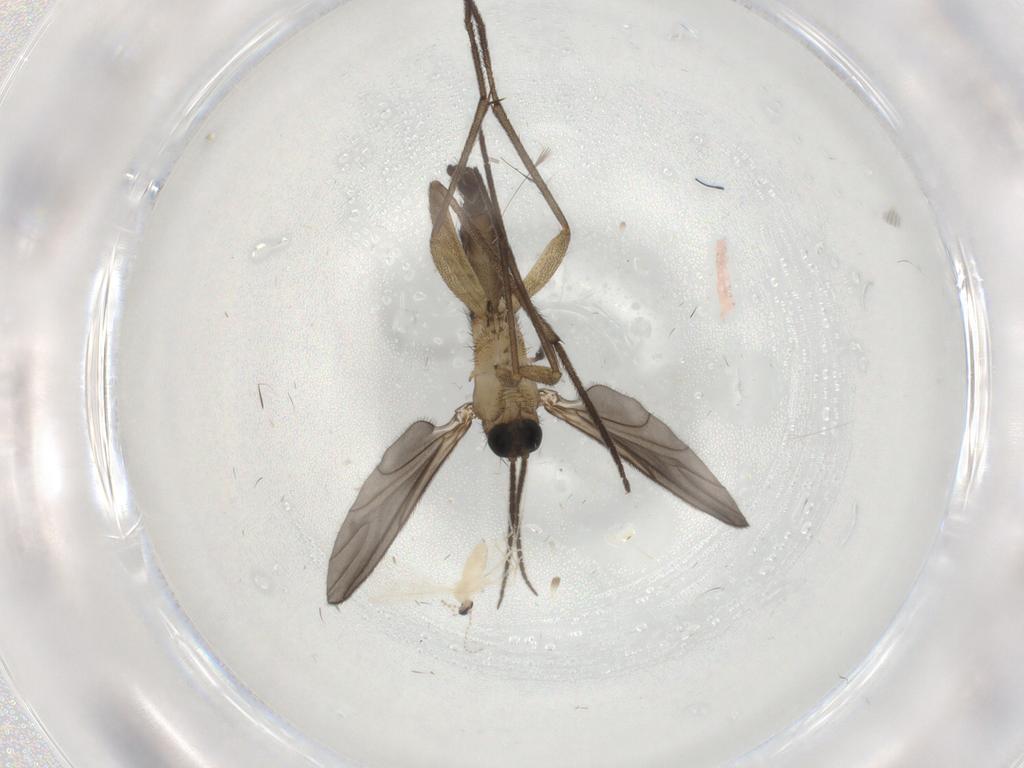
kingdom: Animalia
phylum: Arthropoda
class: Insecta
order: Diptera
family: Sciaridae
